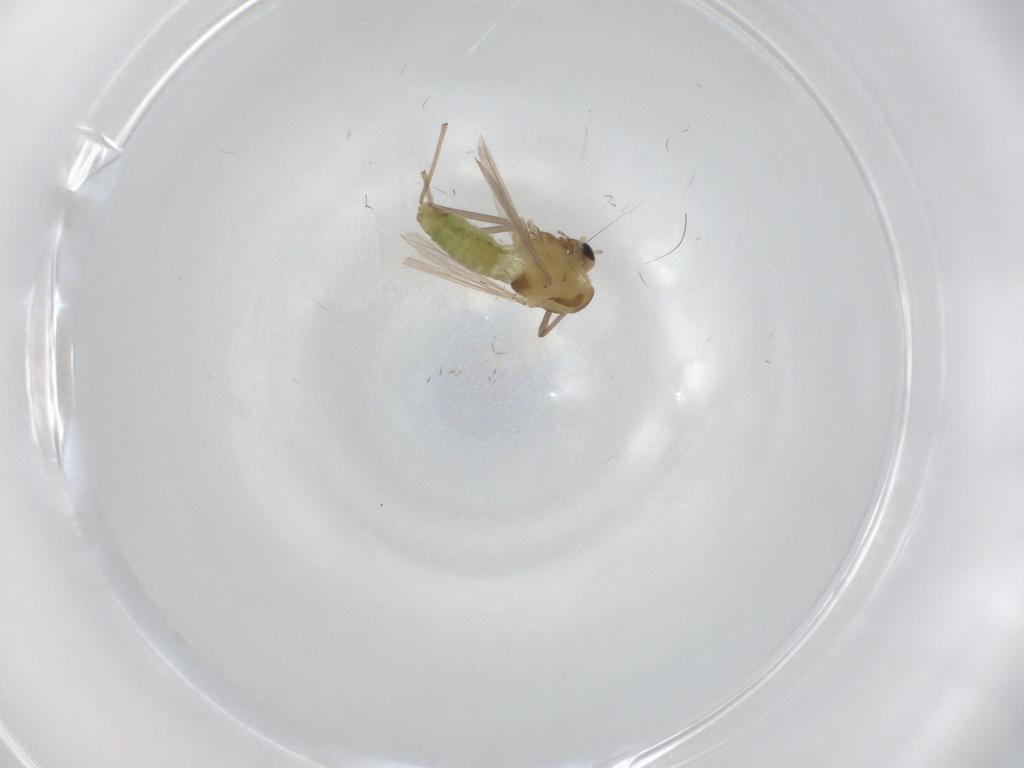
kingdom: Animalia
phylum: Arthropoda
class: Insecta
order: Diptera
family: Chironomidae
